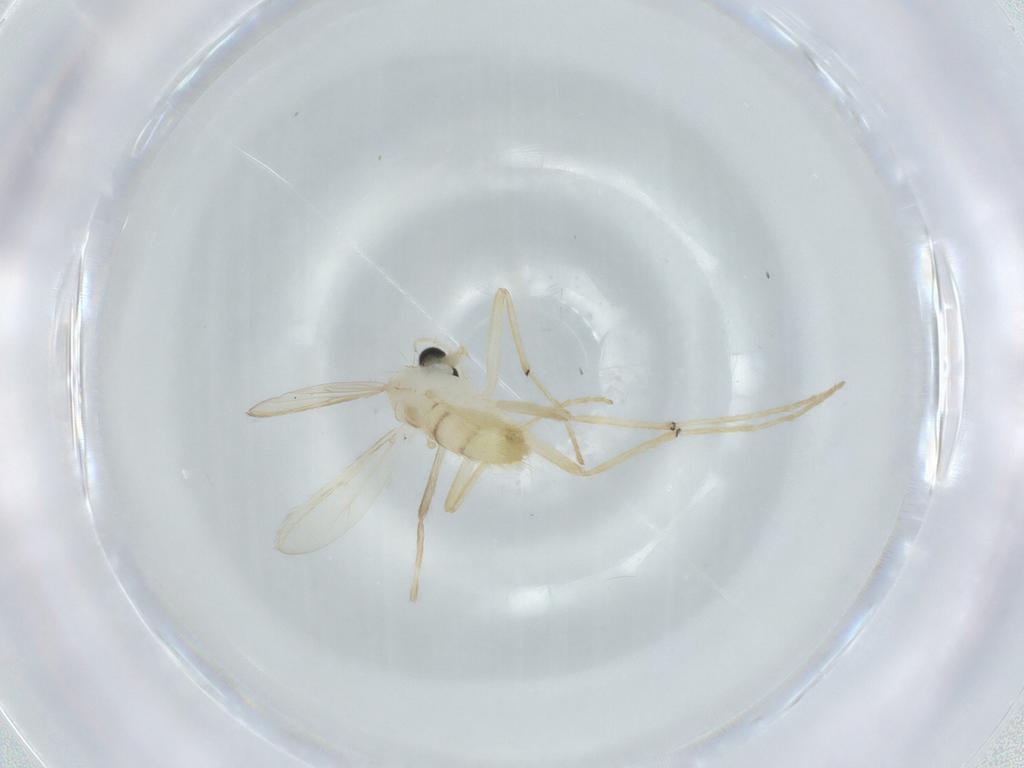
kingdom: Animalia
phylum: Arthropoda
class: Insecta
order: Diptera
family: Chironomidae
